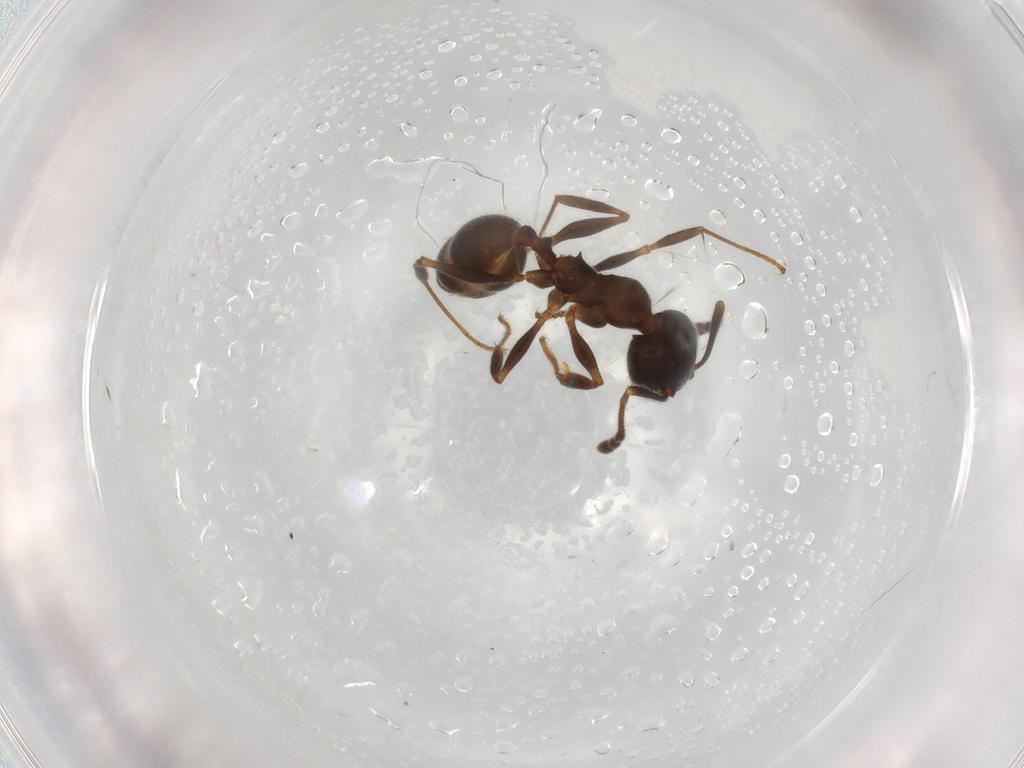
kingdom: Animalia
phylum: Arthropoda
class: Insecta
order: Hymenoptera
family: Formicidae
